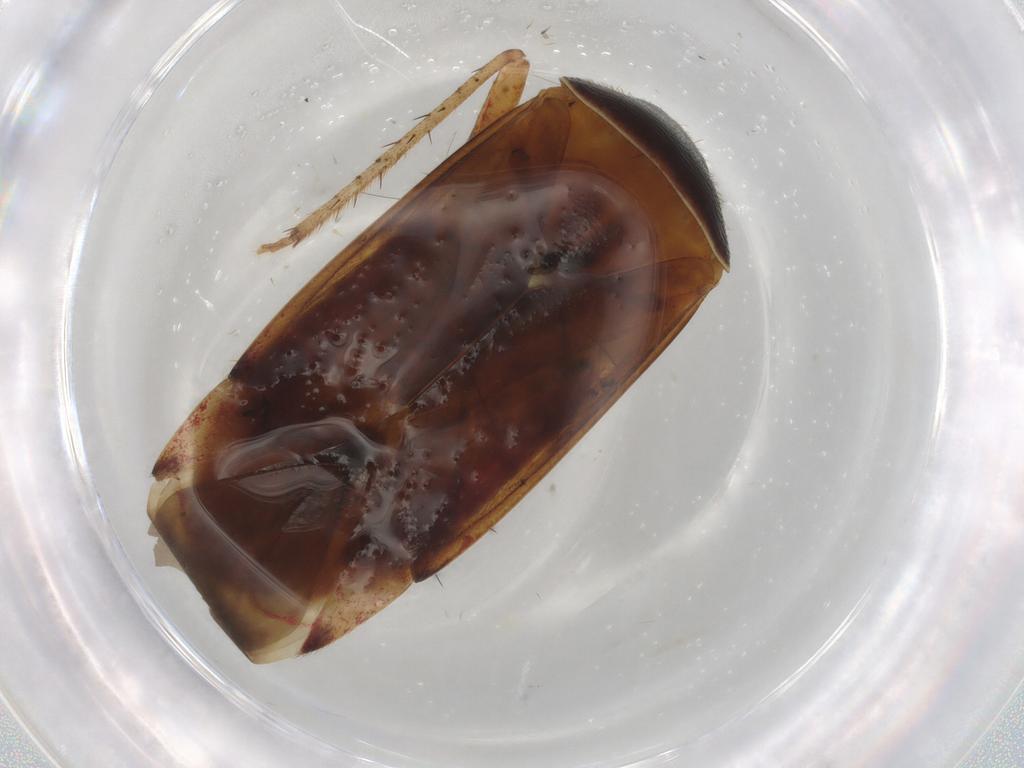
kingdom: Animalia
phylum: Arthropoda
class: Insecta
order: Hemiptera
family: Miridae
